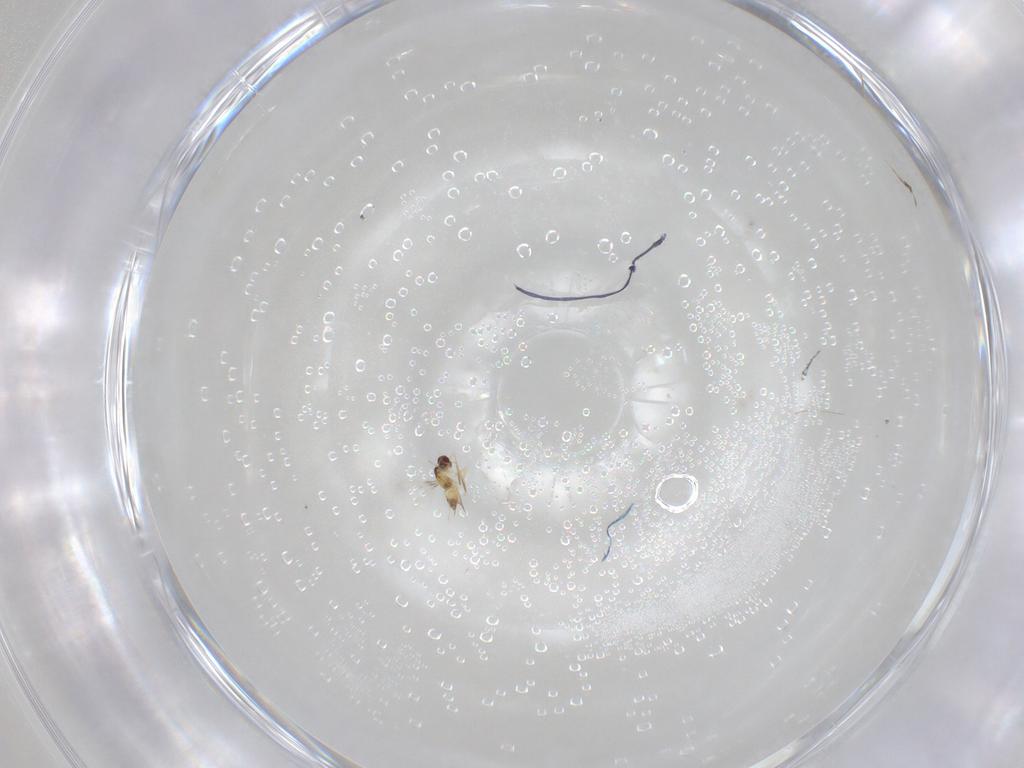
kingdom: Animalia
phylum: Arthropoda
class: Insecta
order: Hymenoptera
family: Mymaridae
